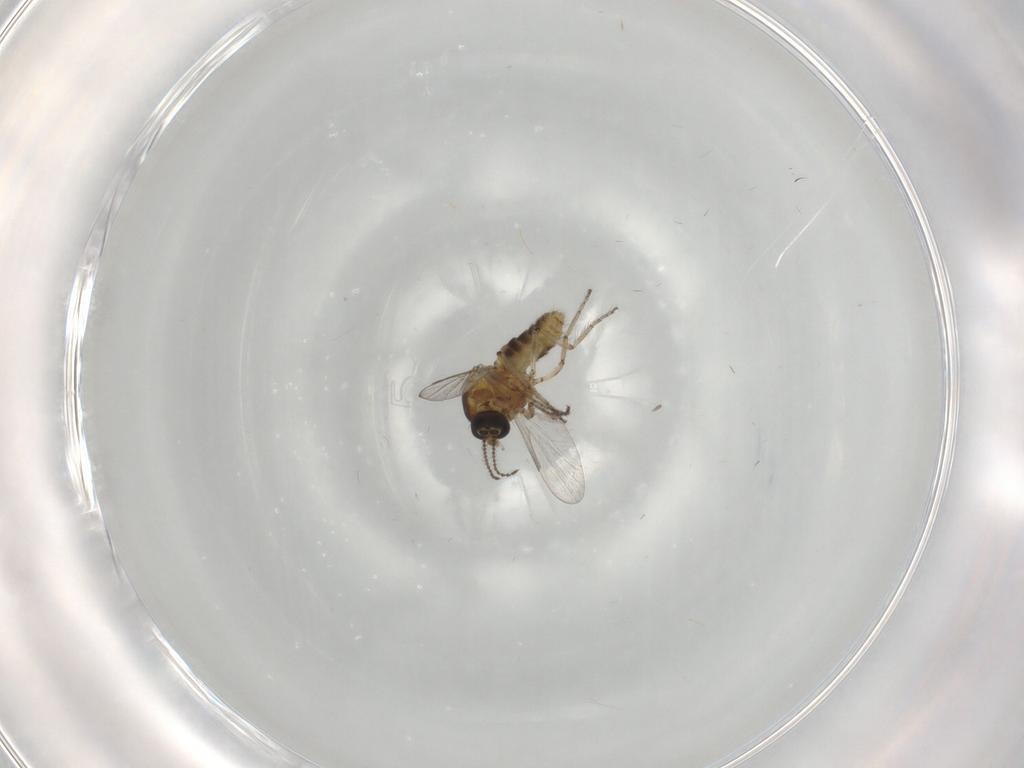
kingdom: Animalia
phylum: Arthropoda
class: Insecta
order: Diptera
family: Ceratopogonidae
